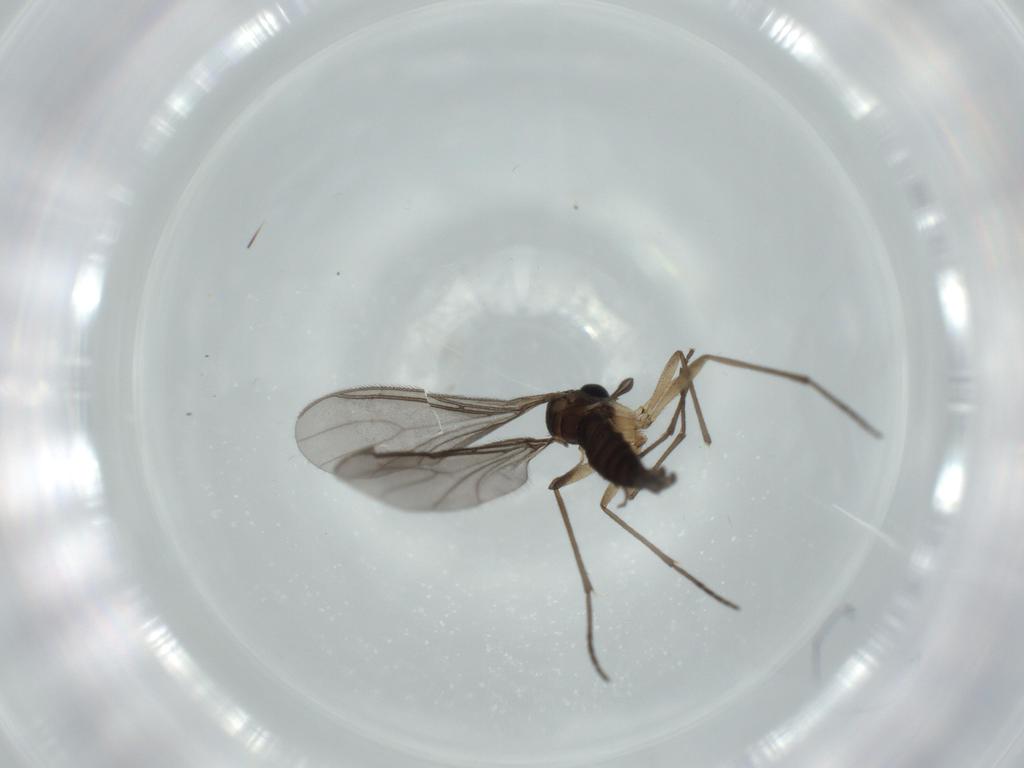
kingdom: Animalia
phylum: Arthropoda
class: Insecta
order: Diptera
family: Sciaridae
